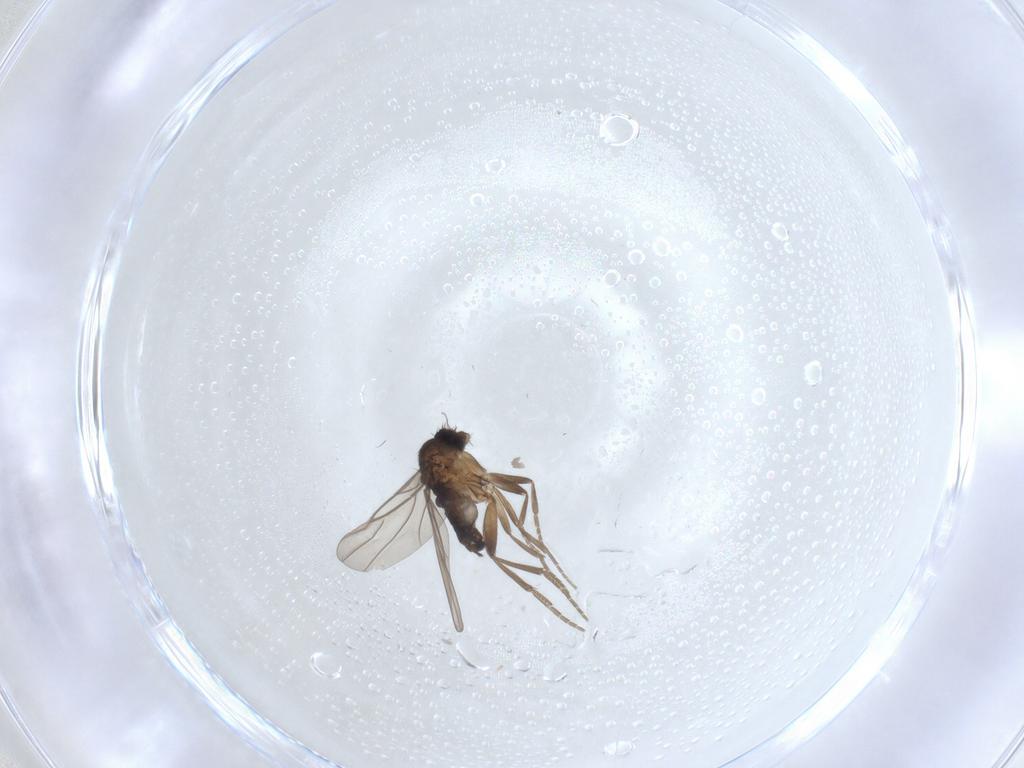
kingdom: Animalia
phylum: Arthropoda
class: Insecta
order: Diptera
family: Phoridae
